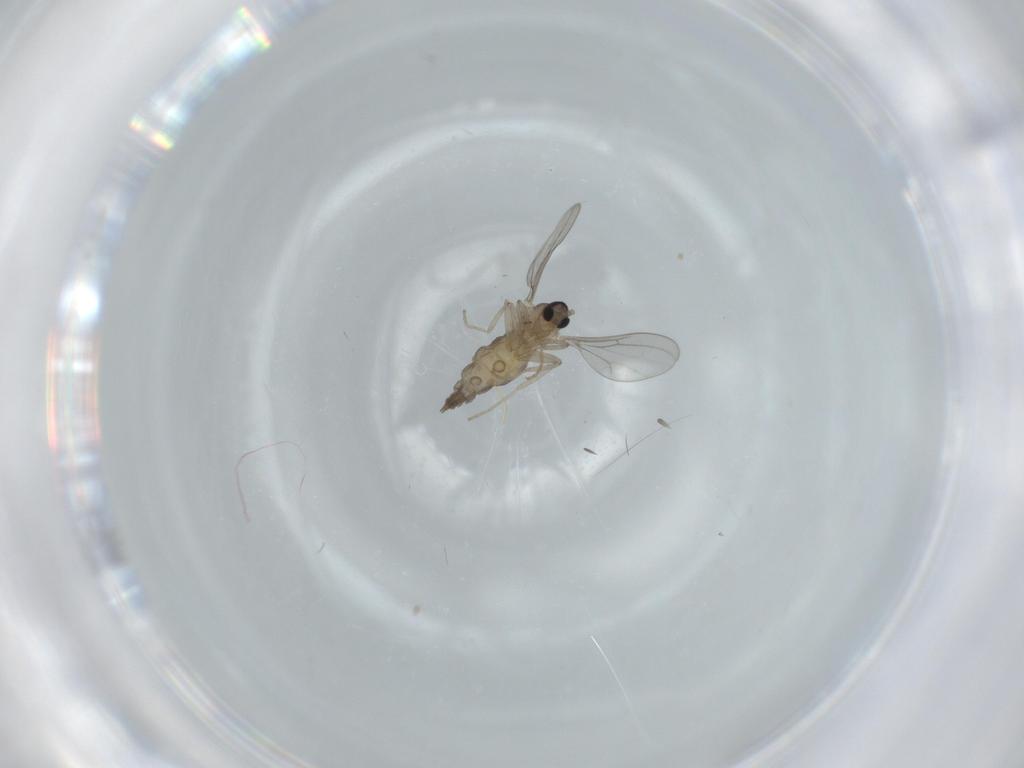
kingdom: Animalia
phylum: Arthropoda
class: Insecta
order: Diptera
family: Cecidomyiidae
